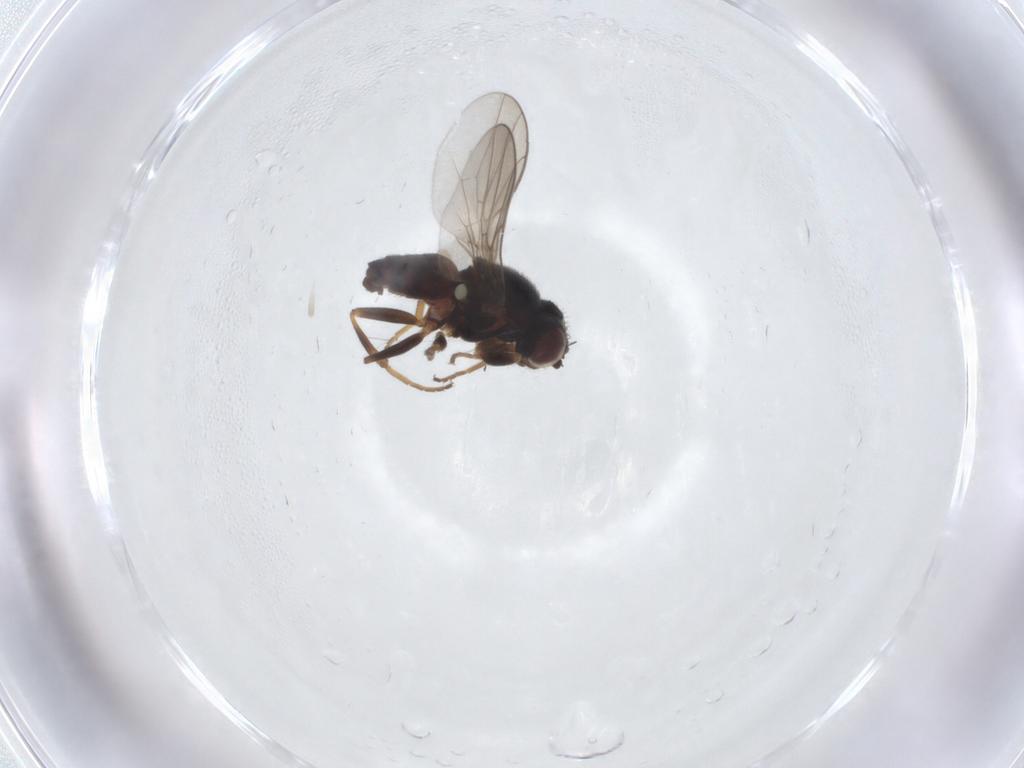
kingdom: Animalia
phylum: Arthropoda
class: Insecta
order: Diptera
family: Chloropidae
